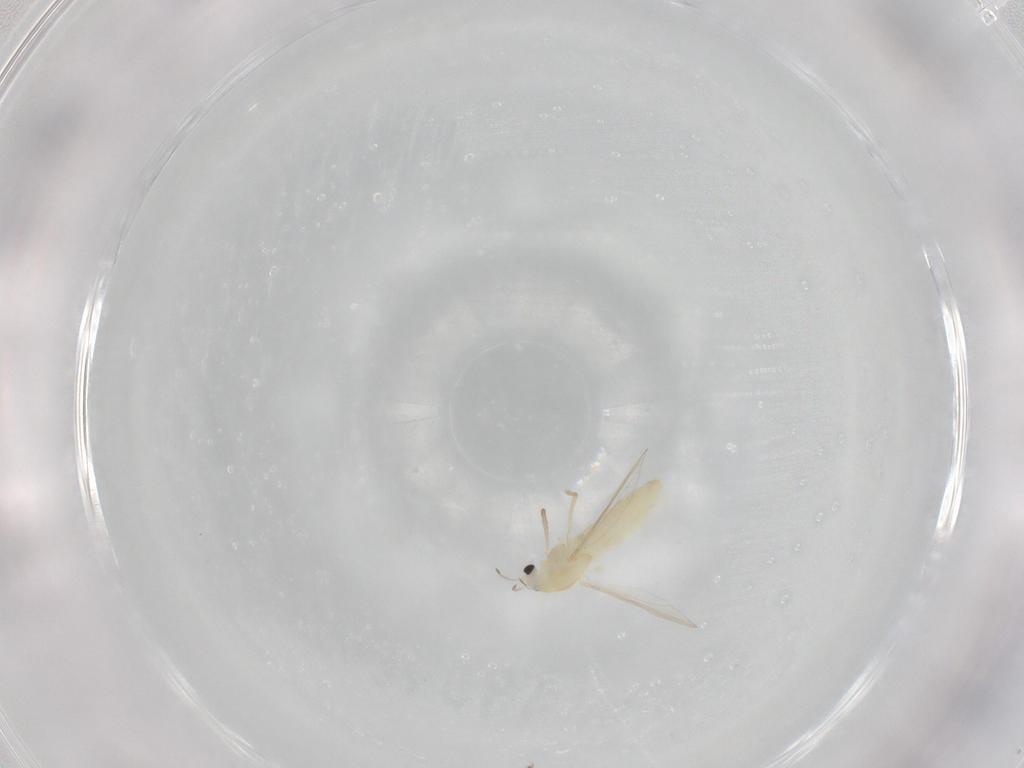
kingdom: Animalia
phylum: Arthropoda
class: Insecta
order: Diptera
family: Chironomidae
